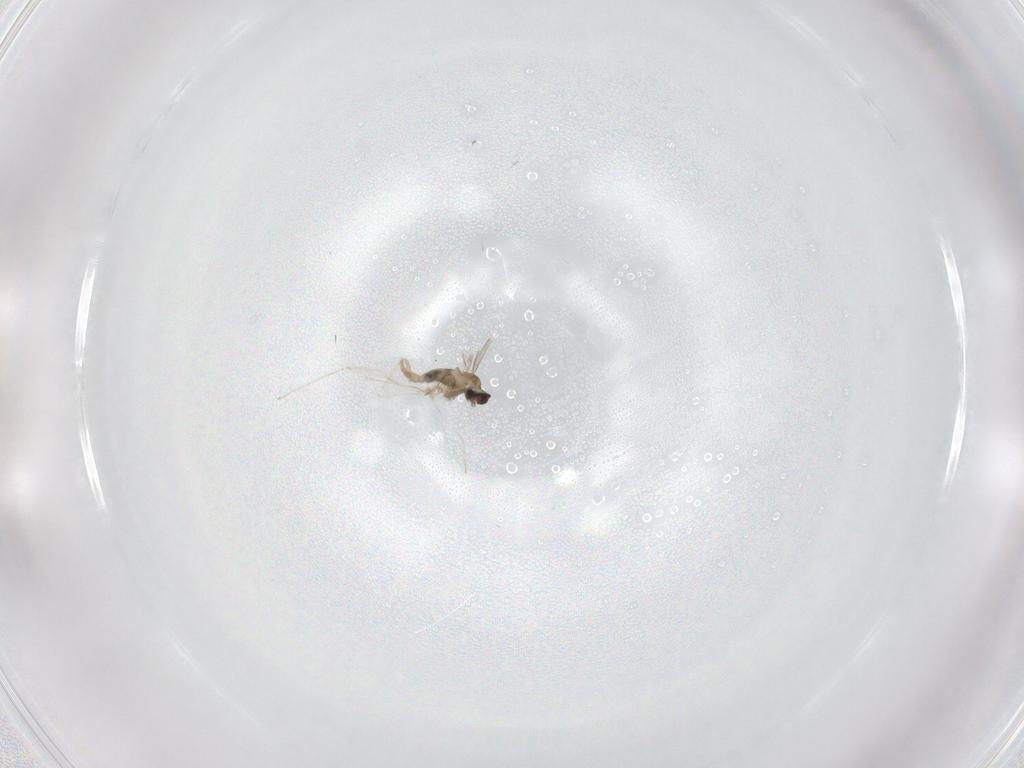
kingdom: Animalia
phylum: Arthropoda
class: Insecta
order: Diptera
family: Cecidomyiidae
